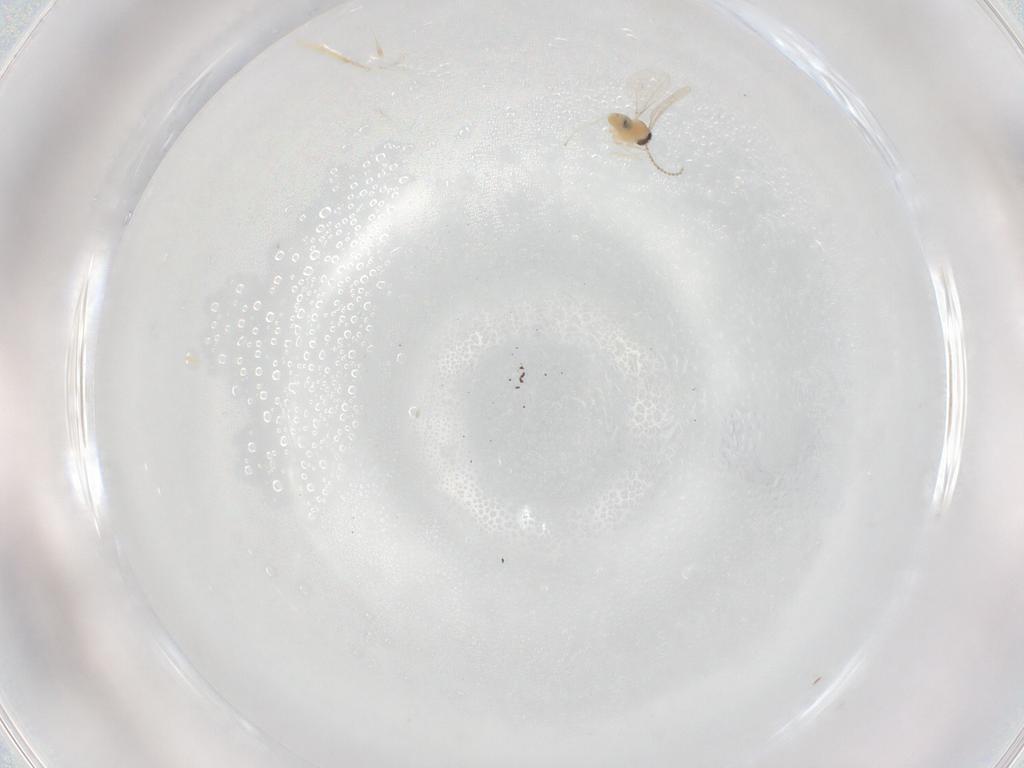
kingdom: Animalia
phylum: Arthropoda
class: Insecta
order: Diptera
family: Cecidomyiidae
